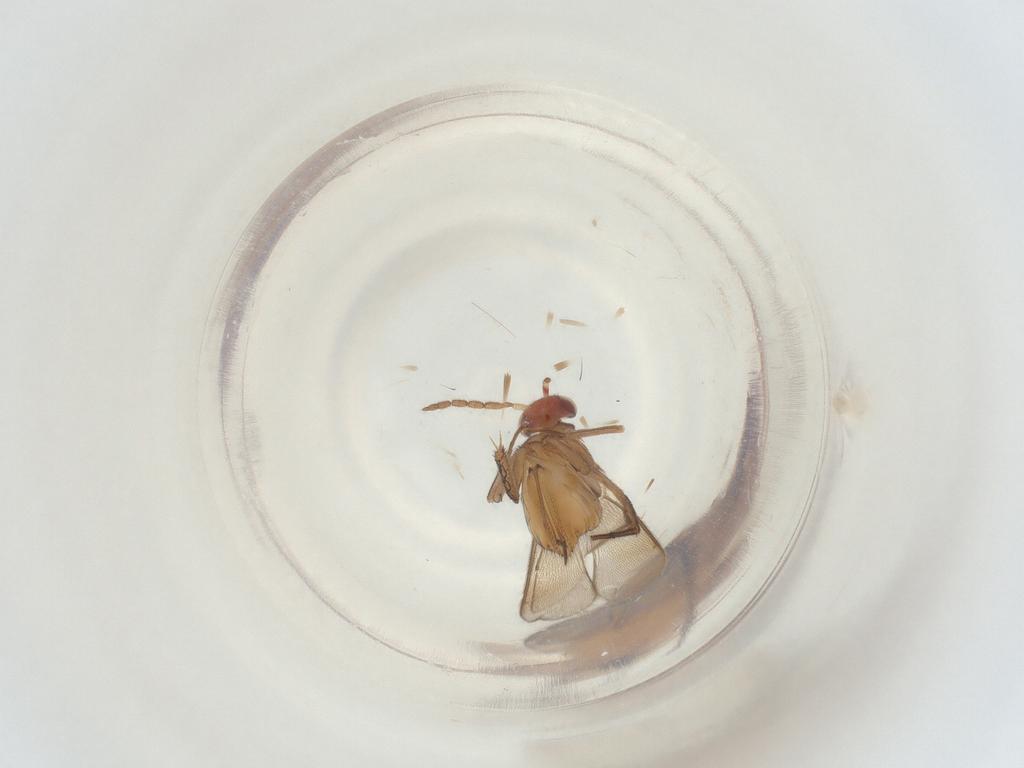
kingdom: Animalia
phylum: Arthropoda
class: Insecta
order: Hymenoptera
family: Eulophidae
